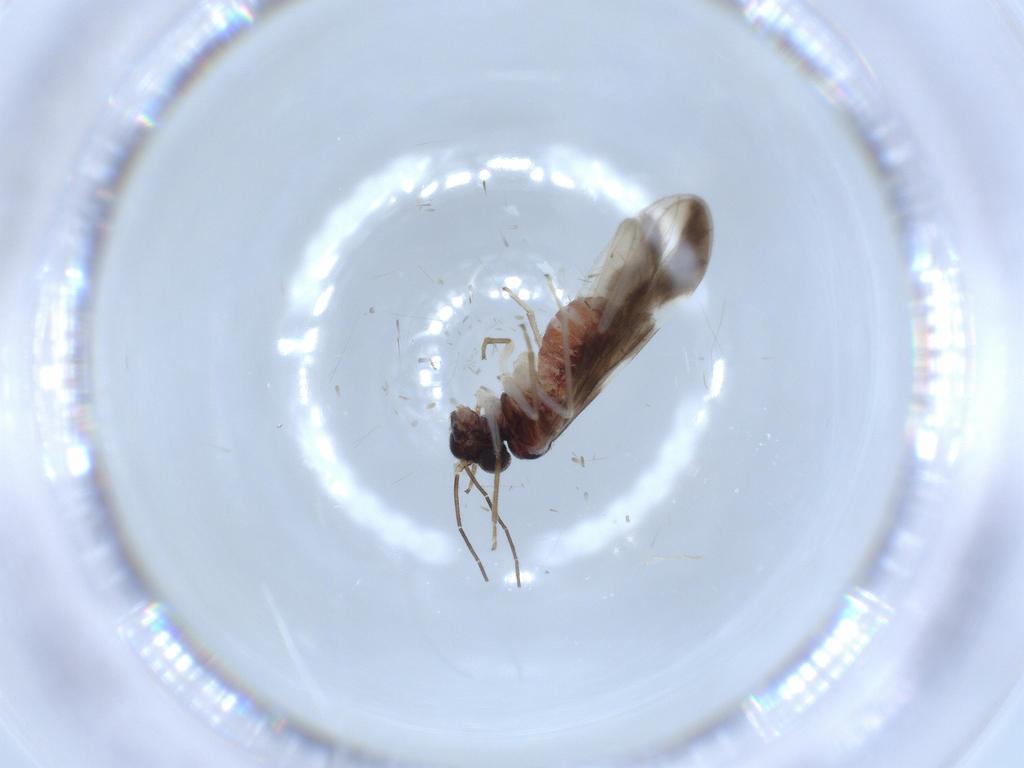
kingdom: Animalia
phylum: Arthropoda
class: Insecta
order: Psocodea
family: Caeciliusidae
